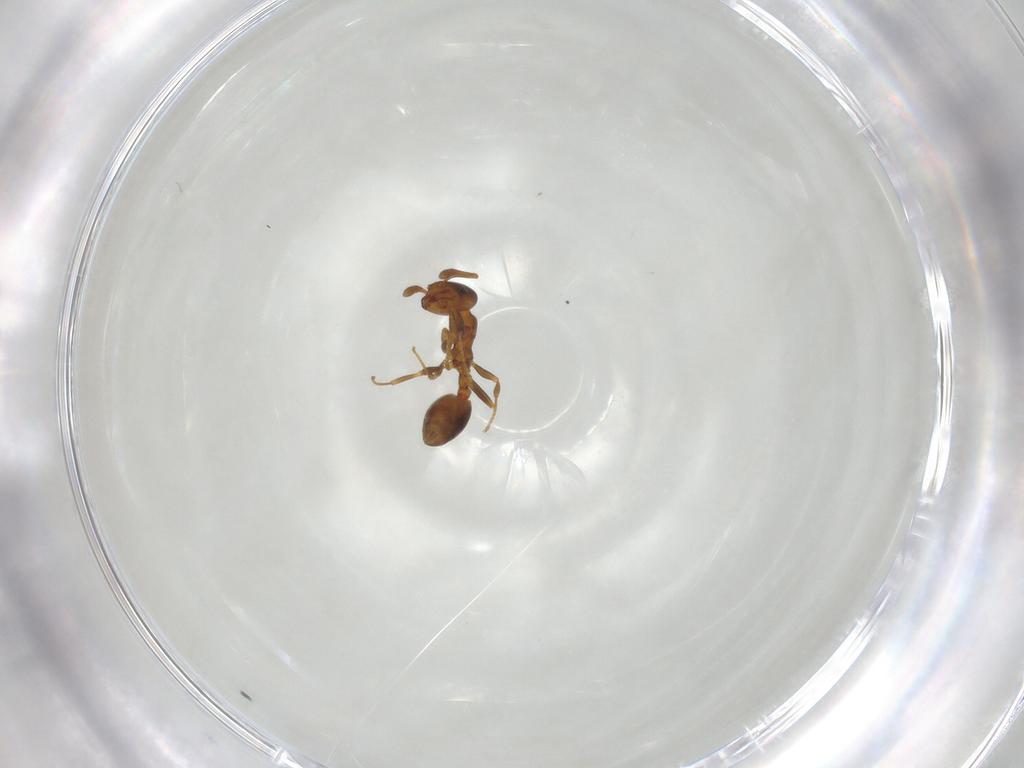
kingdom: Animalia
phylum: Arthropoda
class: Insecta
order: Hymenoptera
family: Formicidae
